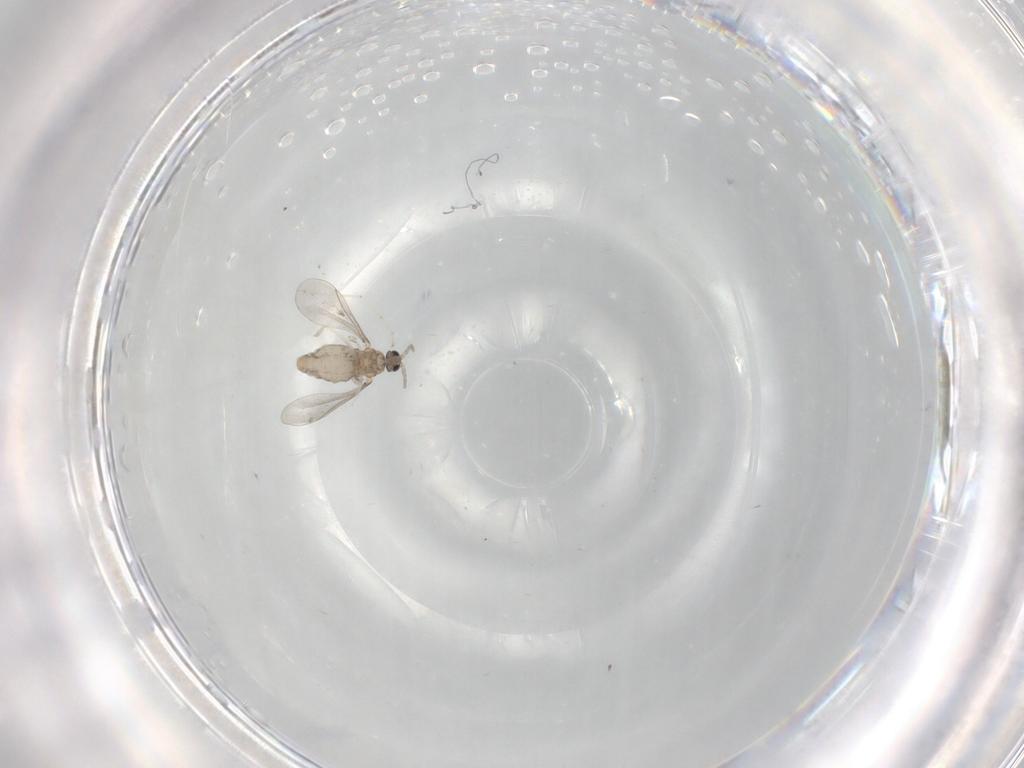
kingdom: Animalia
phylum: Arthropoda
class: Insecta
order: Diptera
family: Cecidomyiidae
